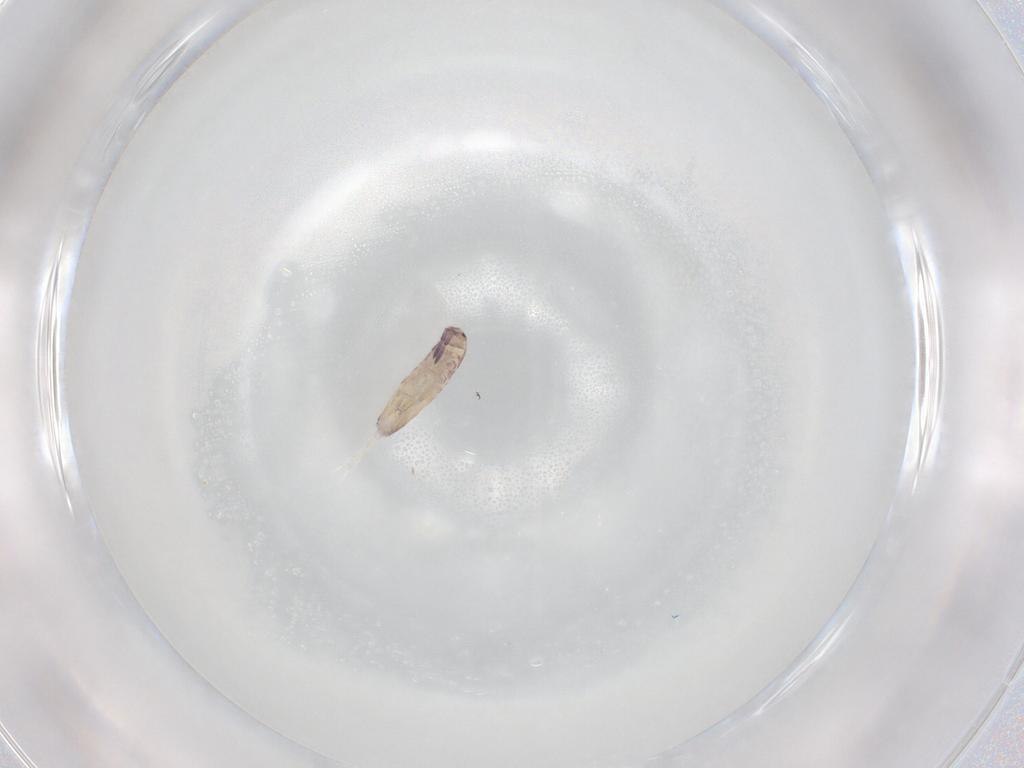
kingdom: Animalia
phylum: Arthropoda
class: Collembola
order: Entomobryomorpha
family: Entomobryidae
